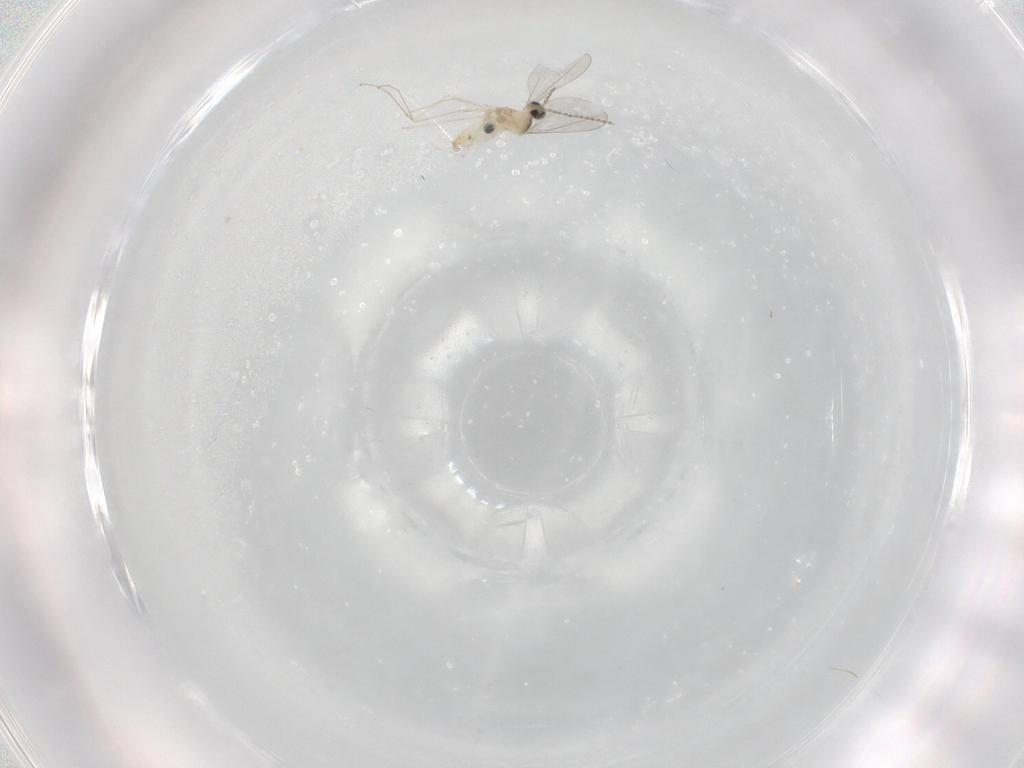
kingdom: Animalia
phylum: Arthropoda
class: Insecta
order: Diptera
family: Cecidomyiidae
